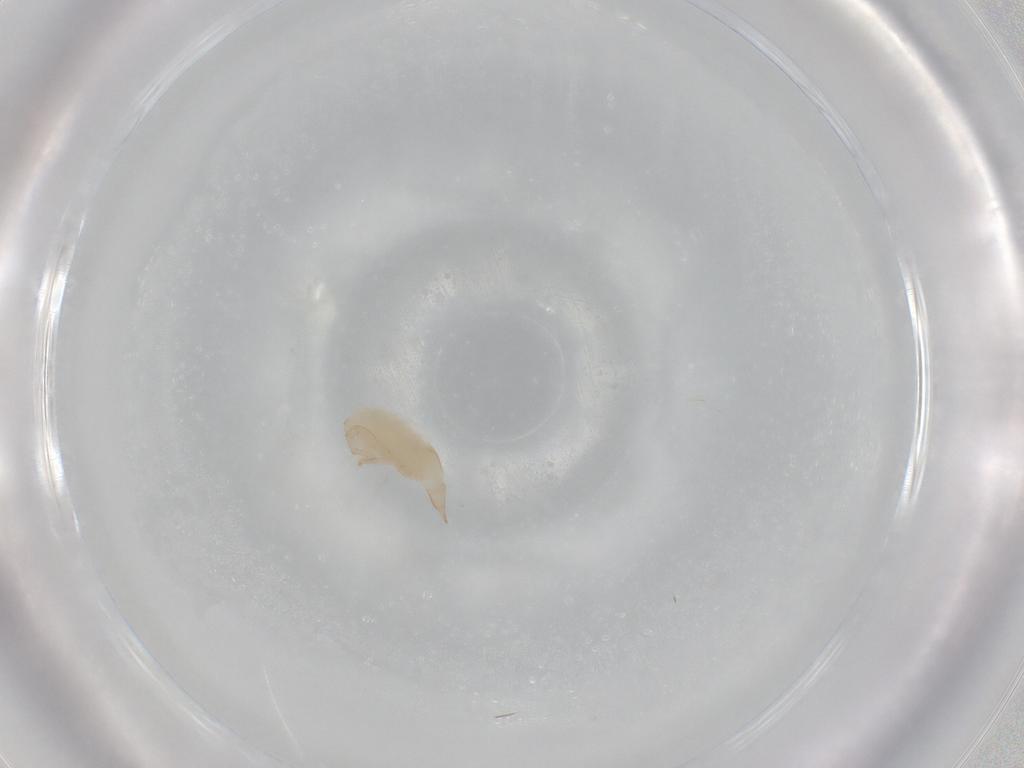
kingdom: Animalia
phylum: Arthropoda
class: Arachnida
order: Trombidiformes
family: Bdellidae
